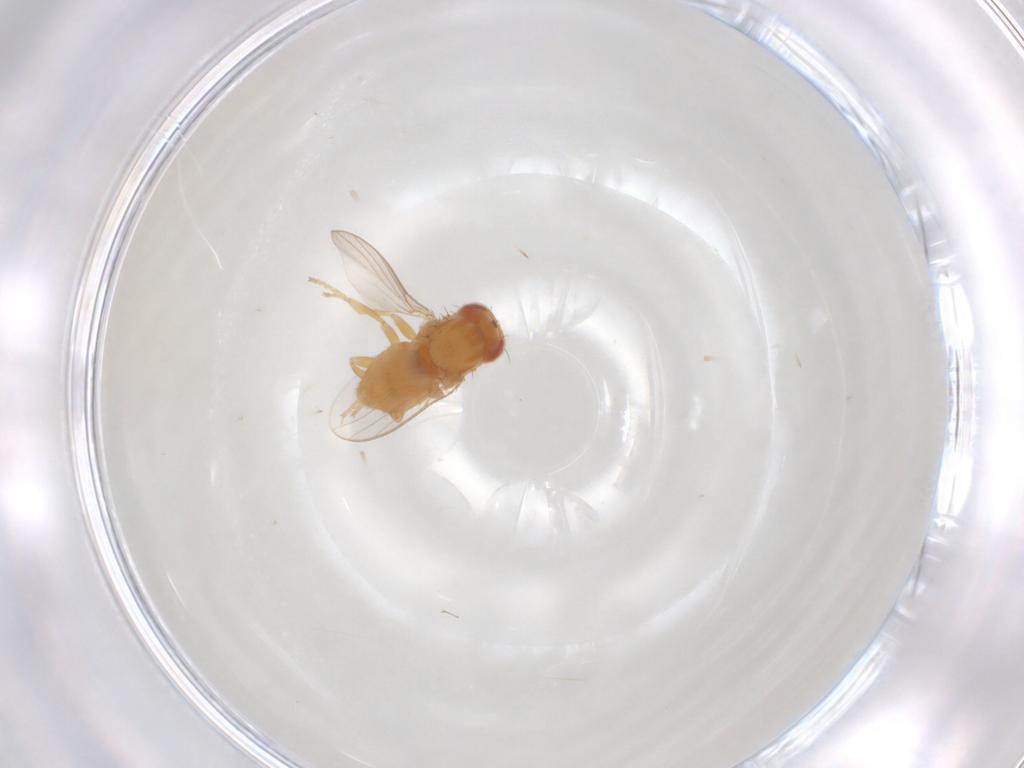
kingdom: Animalia
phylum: Arthropoda
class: Insecta
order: Diptera
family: Ceratopogonidae
